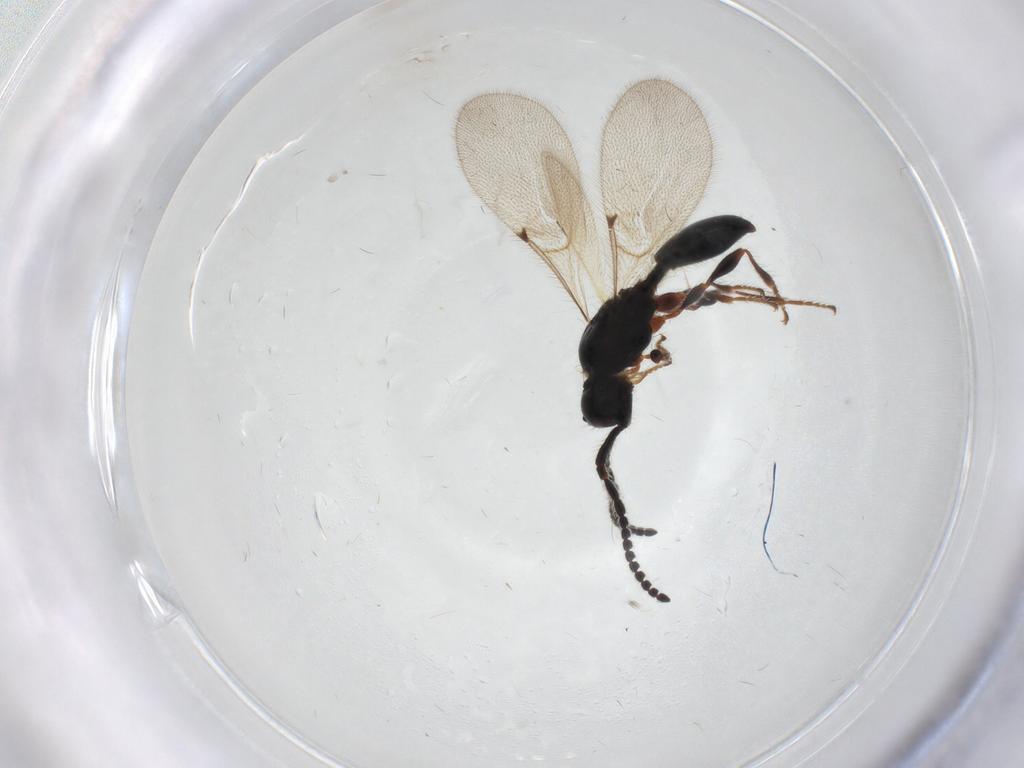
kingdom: Animalia
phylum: Arthropoda
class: Insecta
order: Hymenoptera
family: Diapriidae
